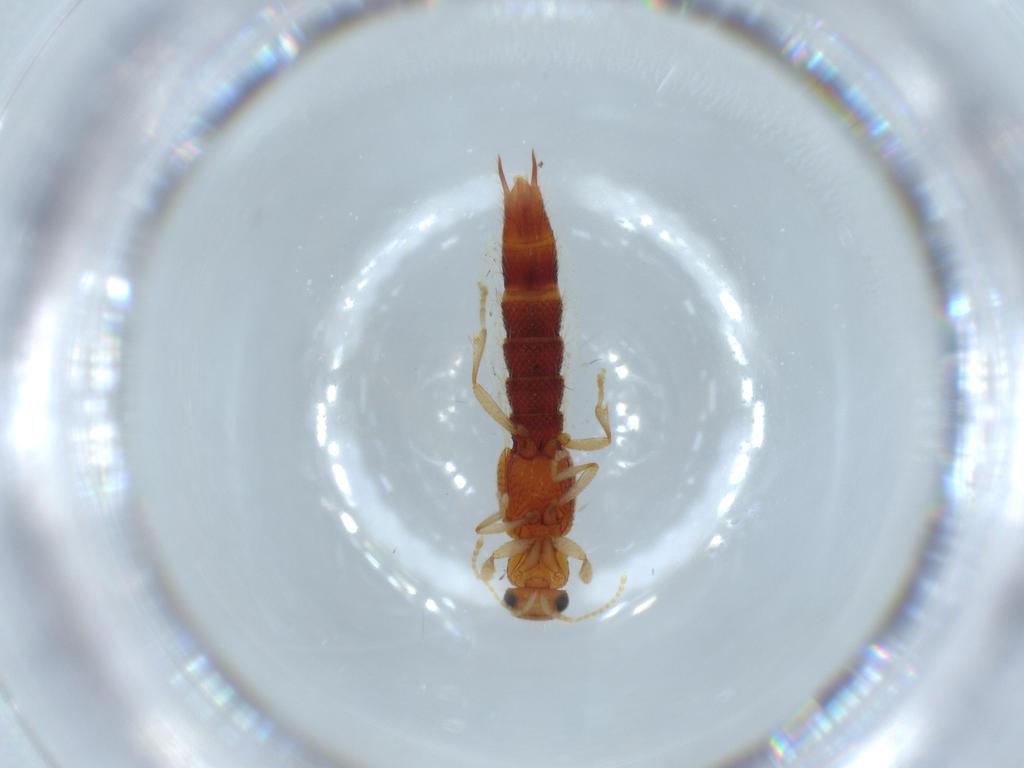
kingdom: Animalia
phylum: Arthropoda
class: Insecta
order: Coleoptera
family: Staphylinidae
